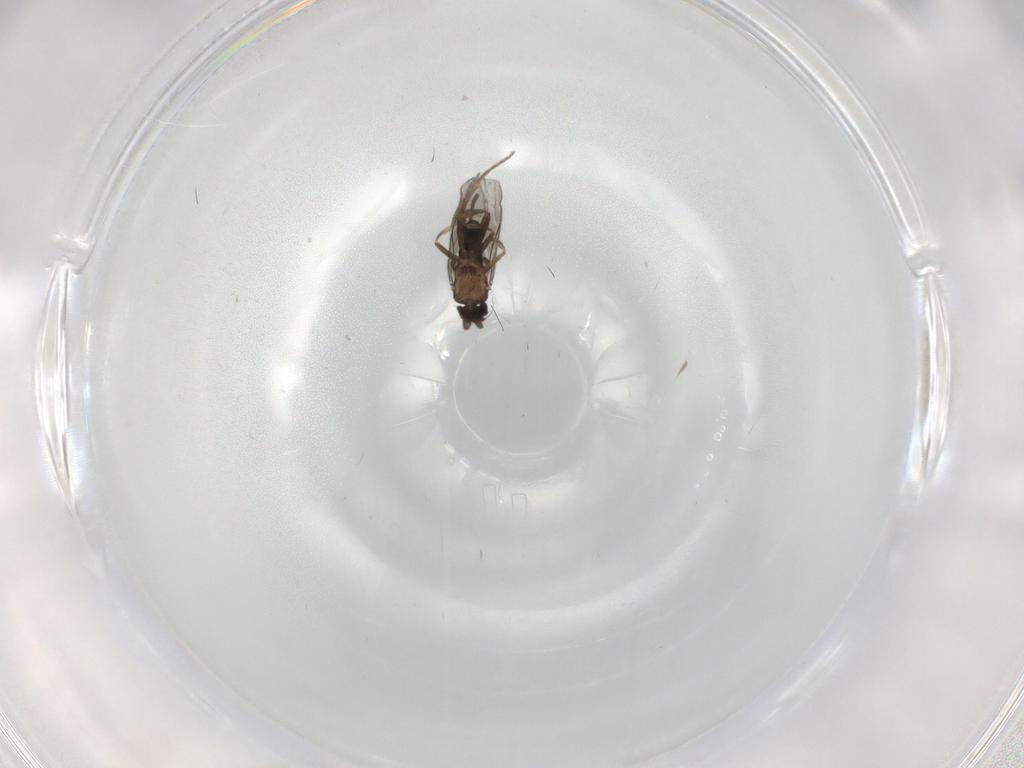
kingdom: Animalia
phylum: Arthropoda
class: Insecta
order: Diptera
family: Sciaridae
